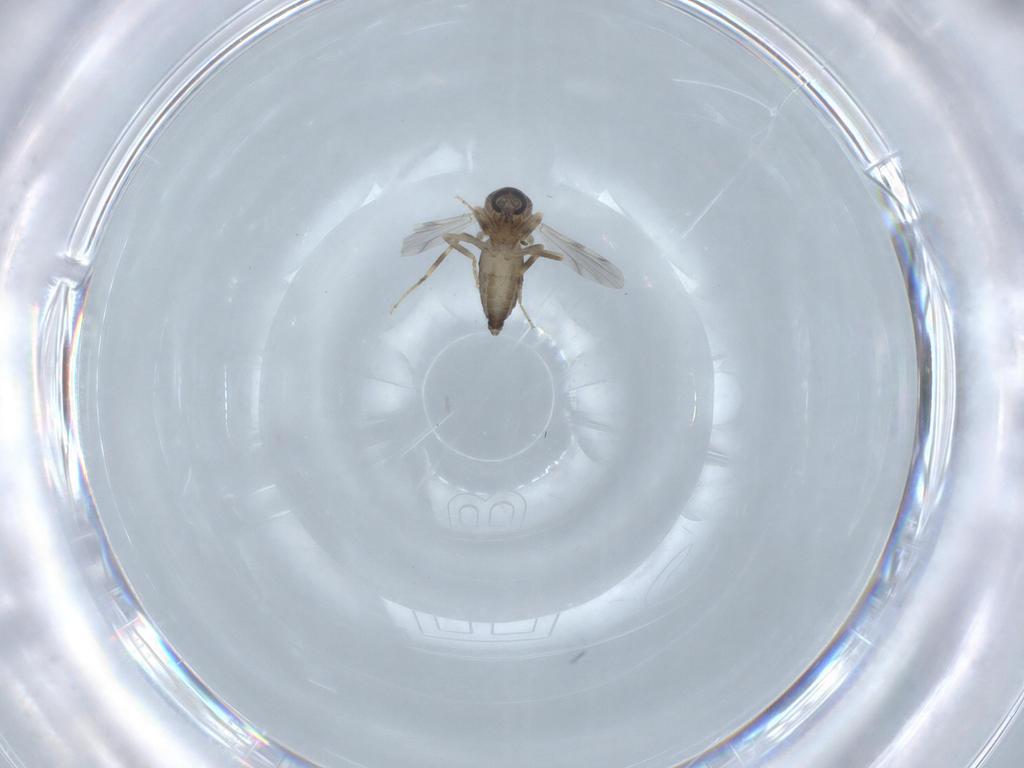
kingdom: Animalia
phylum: Arthropoda
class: Insecta
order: Diptera
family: Ceratopogonidae
